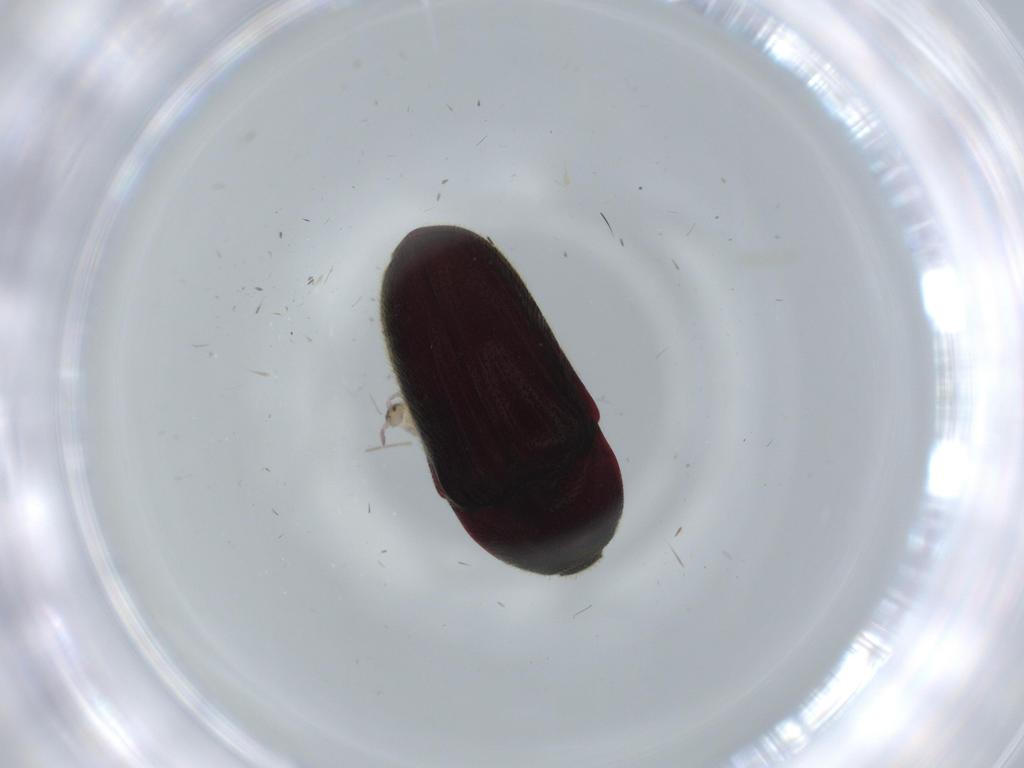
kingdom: Animalia
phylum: Arthropoda
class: Insecta
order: Coleoptera
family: Throscidae
